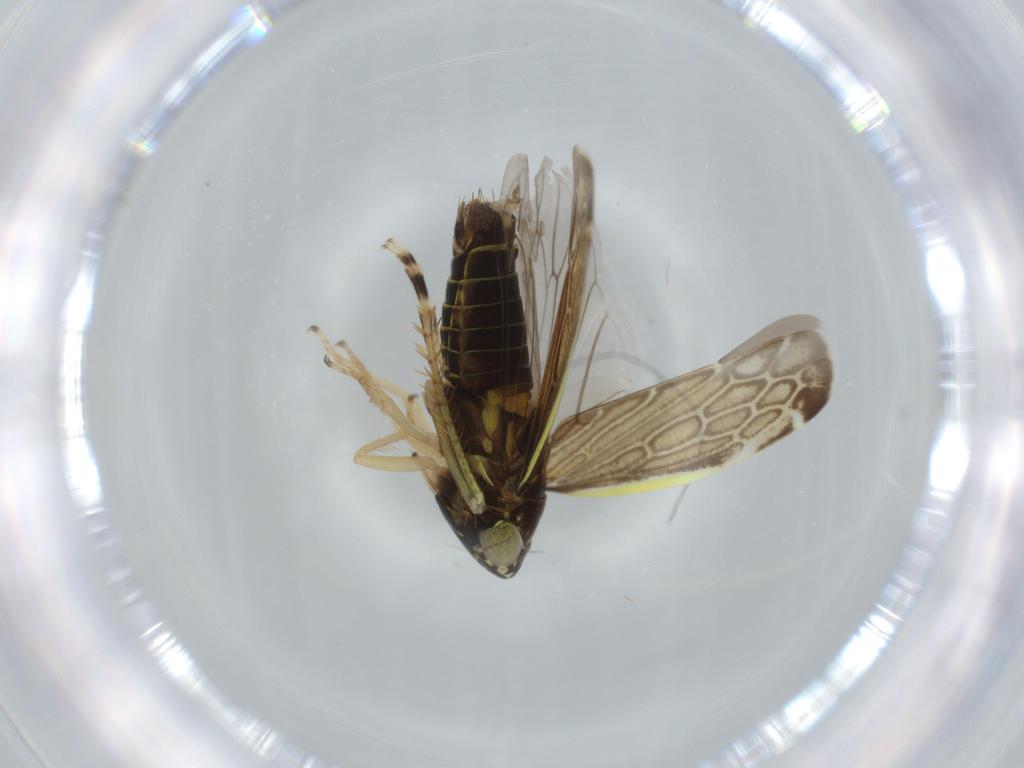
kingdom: Animalia
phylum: Arthropoda
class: Insecta
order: Hemiptera
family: Cicadellidae
